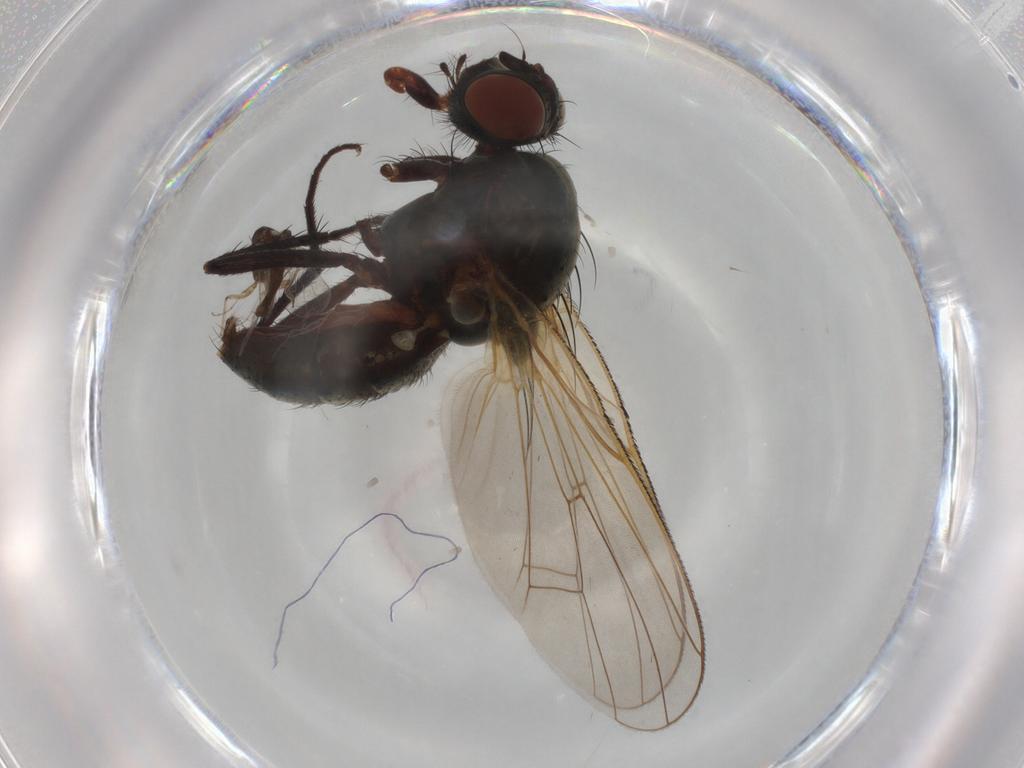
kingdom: Animalia
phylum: Arthropoda
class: Insecta
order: Diptera
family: Ceratopogonidae
